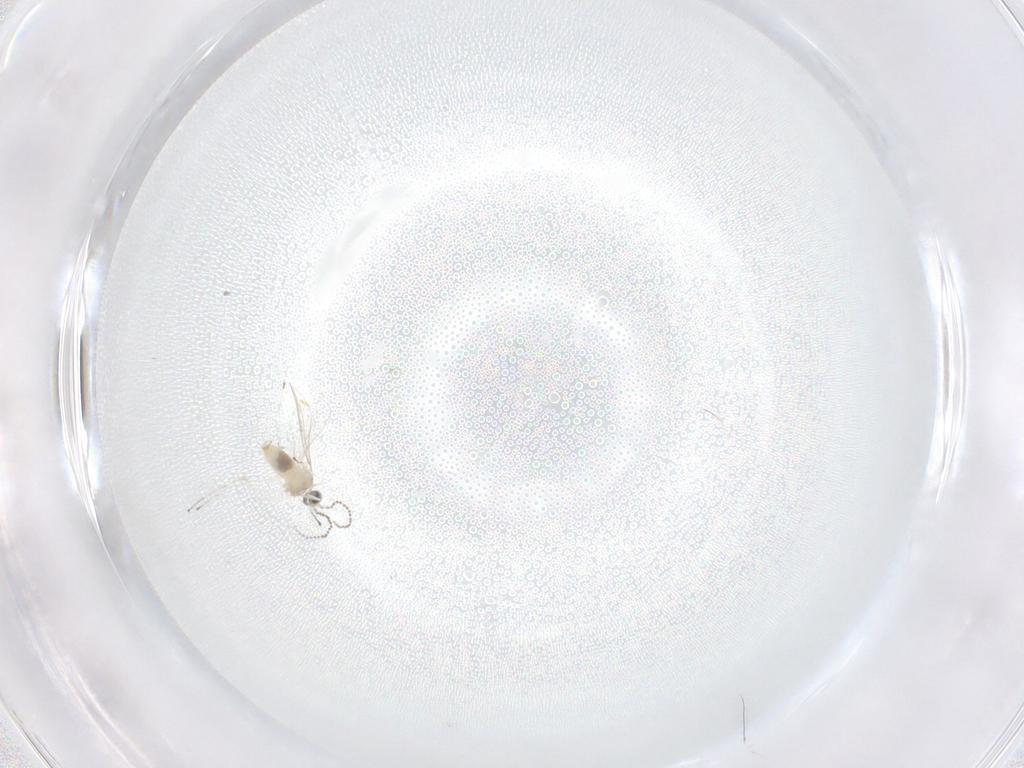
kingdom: Animalia
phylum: Arthropoda
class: Insecta
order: Diptera
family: Cecidomyiidae
